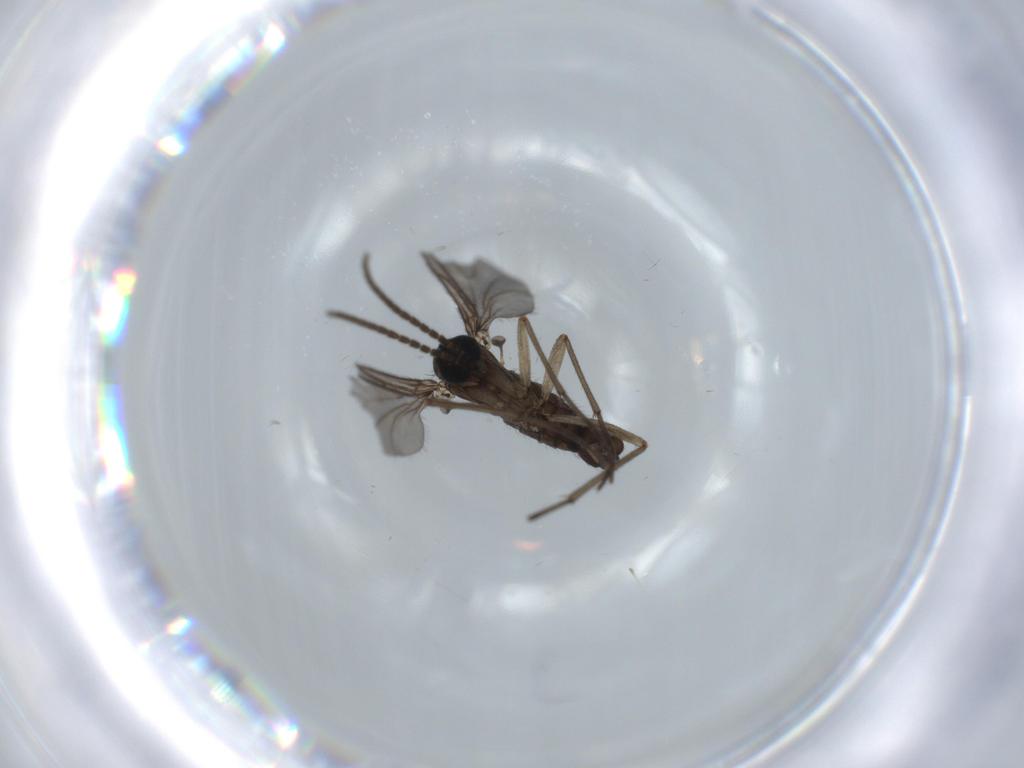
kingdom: Animalia
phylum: Arthropoda
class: Insecta
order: Diptera
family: Sciaridae
